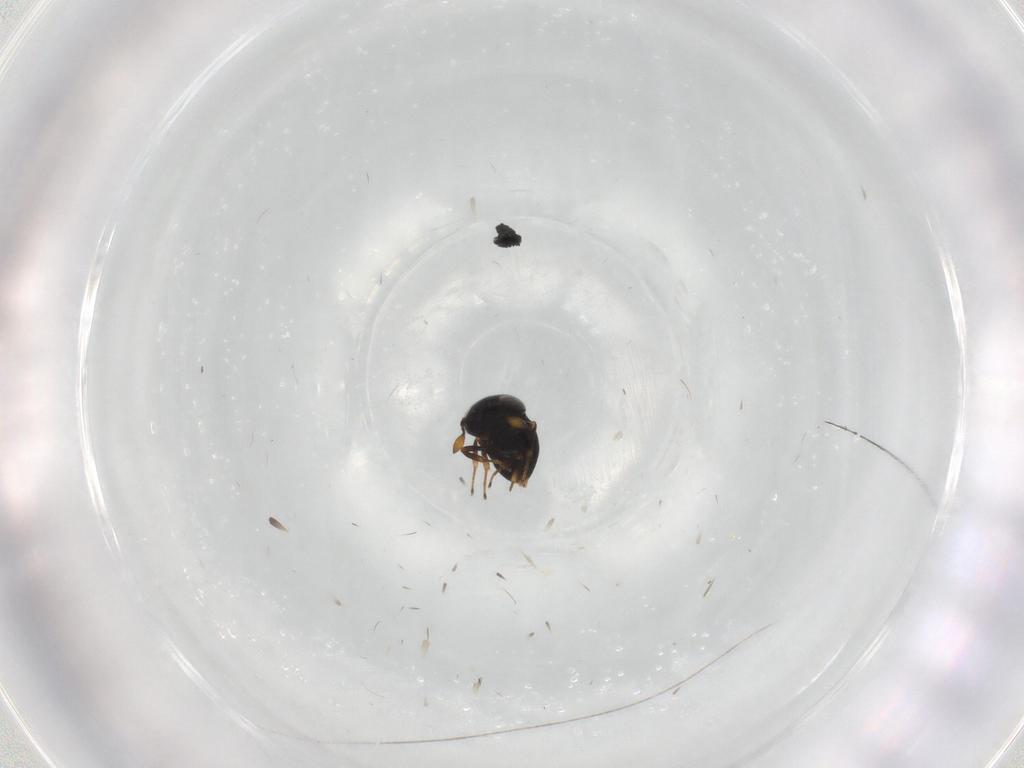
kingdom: Animalia
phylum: Arthropoda
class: Insecta
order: Hymenoptera
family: Scelionidae
